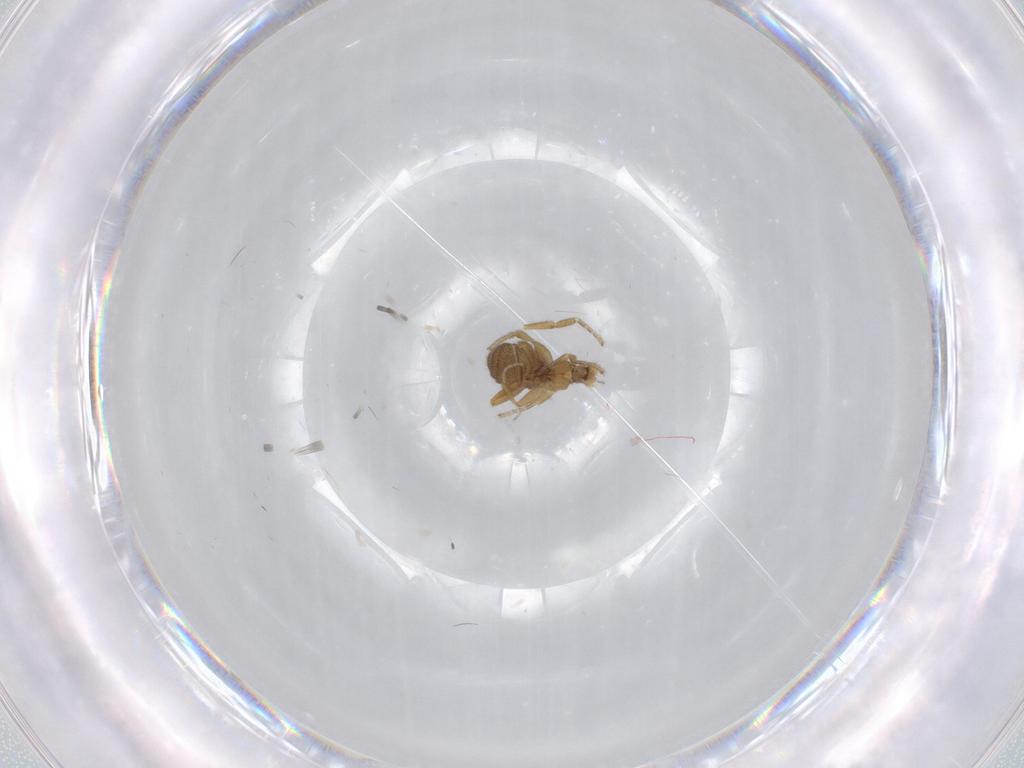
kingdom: Animalia
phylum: Arthropoda
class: Insecta
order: Diptera
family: Phoridae
